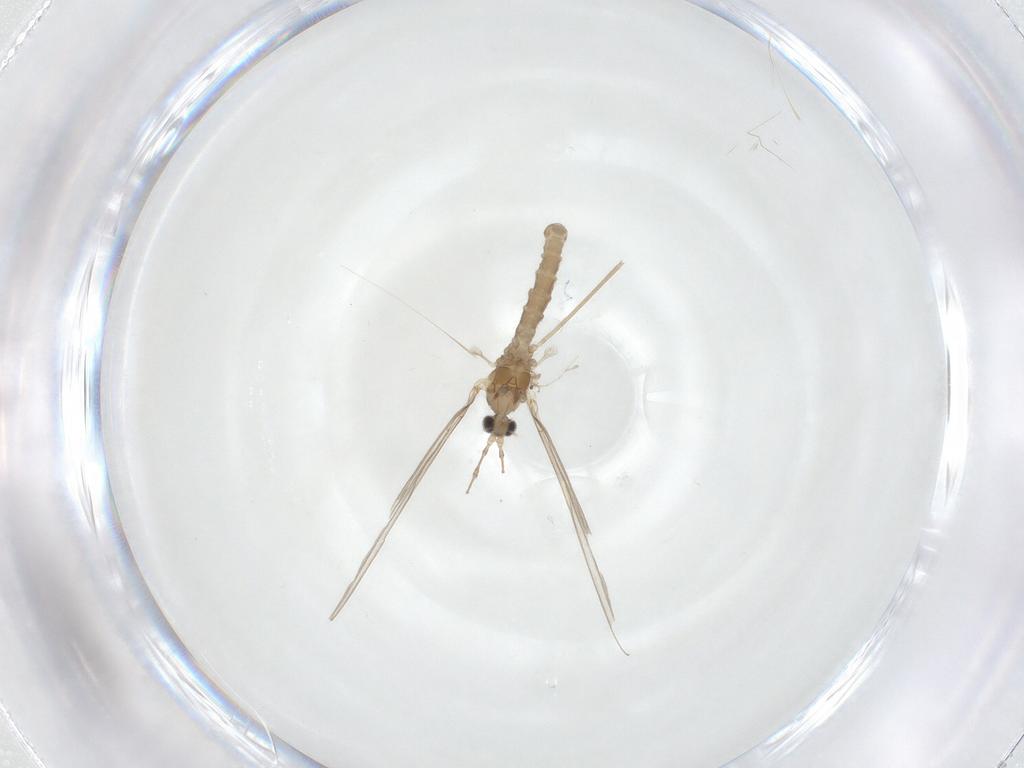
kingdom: Animalia
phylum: Arthropoda
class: Insecta
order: Diptera
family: Cecidomyiidae
